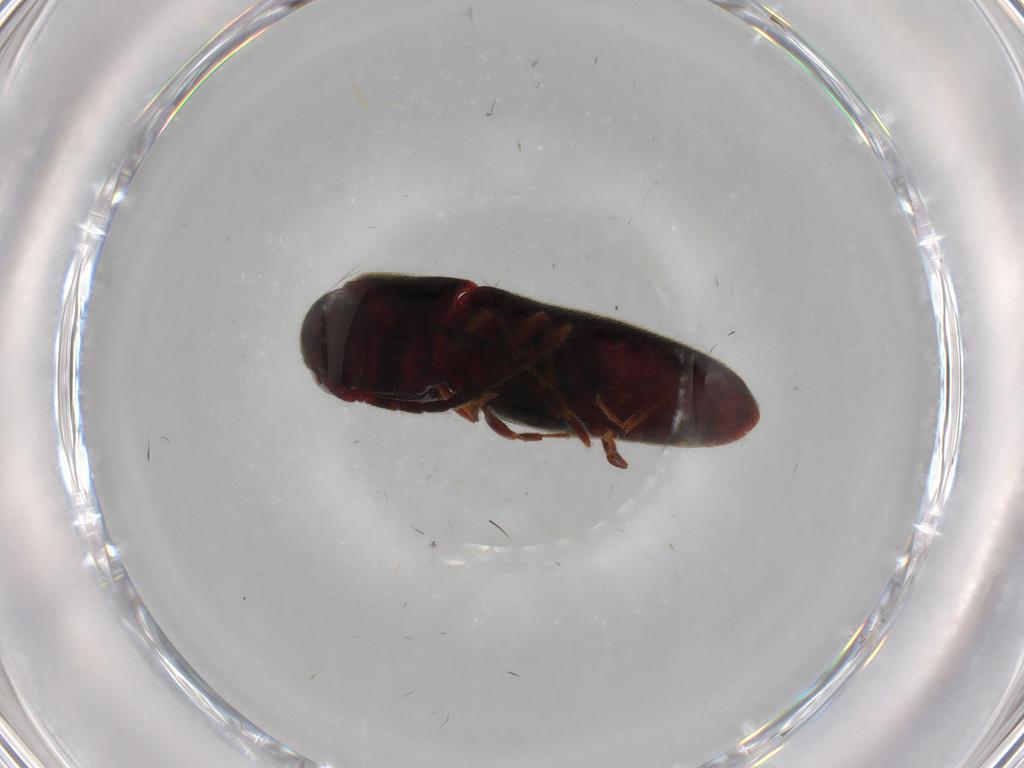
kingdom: Animalia
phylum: Arthropoda
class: Insecta
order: Coleoptera
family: Eucnemidae
